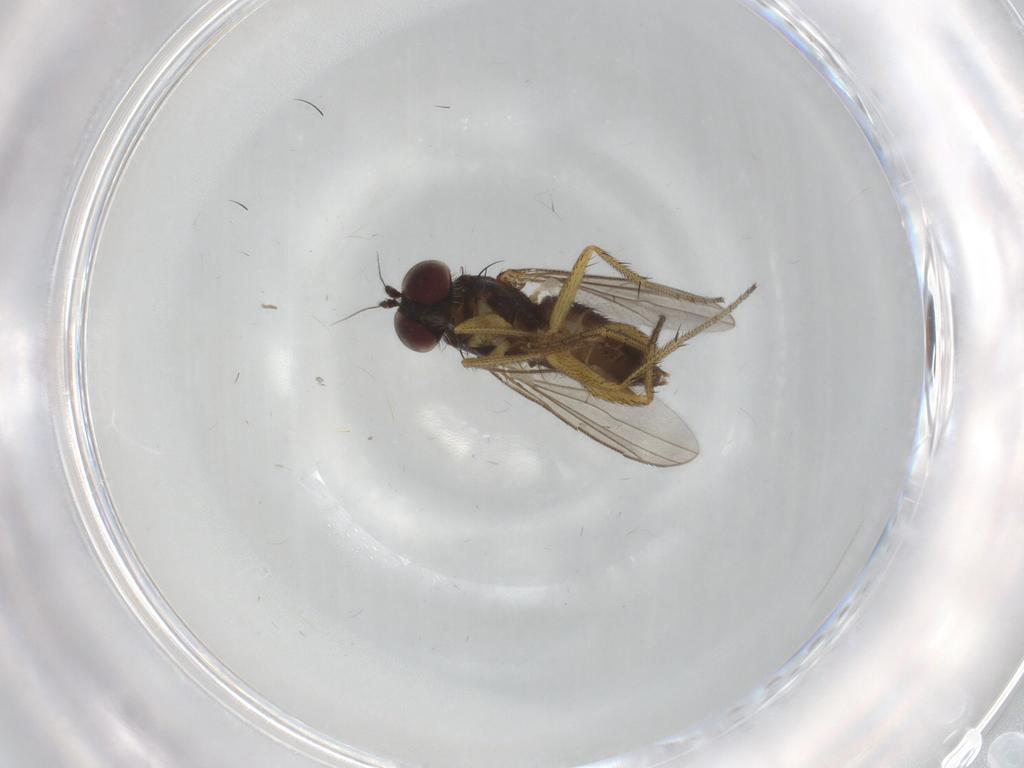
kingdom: Animalia
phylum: Arthropoda
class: Insecta
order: Diptera
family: Chironomidae
